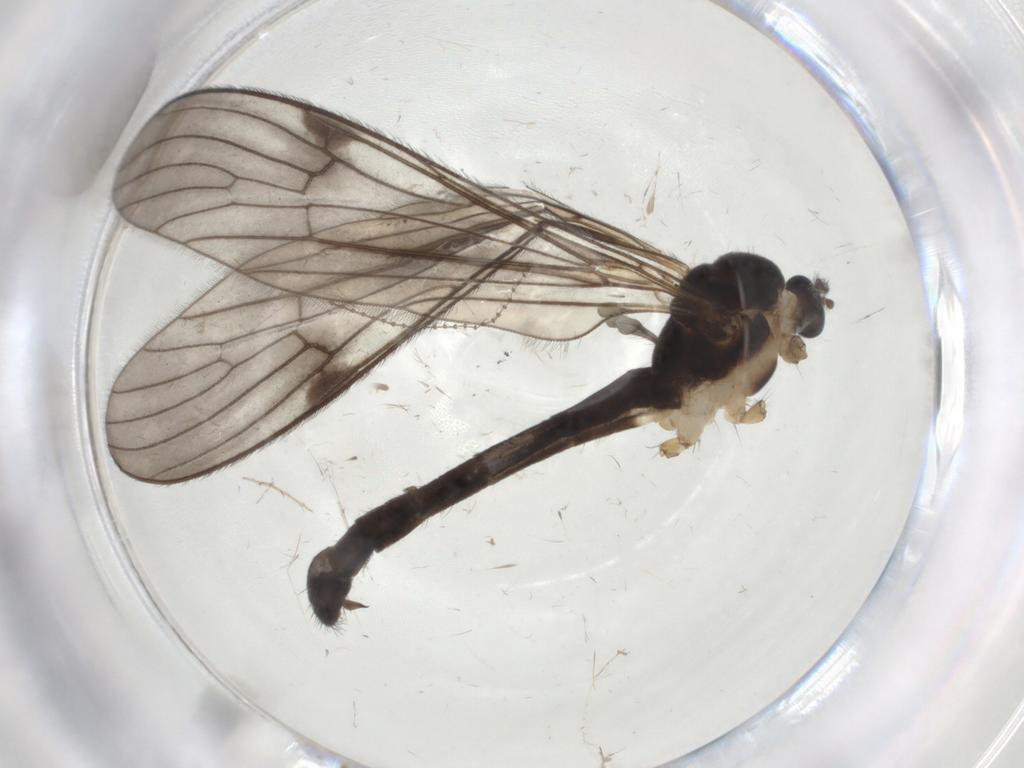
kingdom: Animalia
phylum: Arthropoda
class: Insecta
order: Diptera
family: Limoniidae
